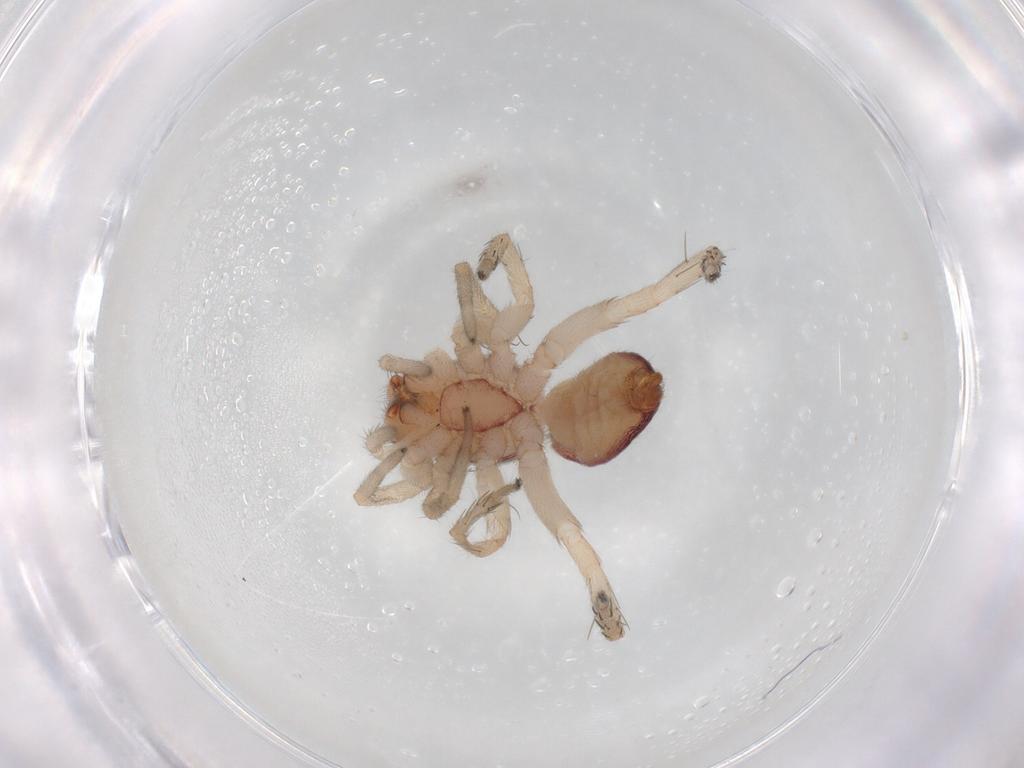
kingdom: Animalia
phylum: Arthropoda
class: Arachnida
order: Araneae
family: Clubionidae
